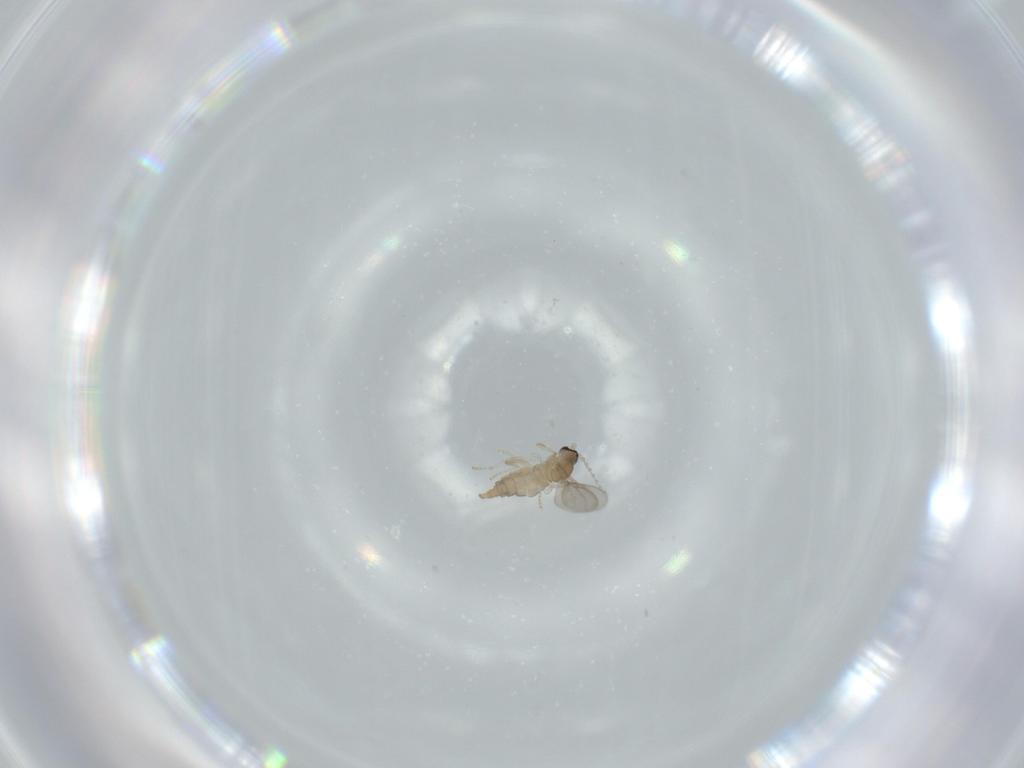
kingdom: Animalia
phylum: Arthropoda
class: Insecta
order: Diptera
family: Cecidomyiidae
